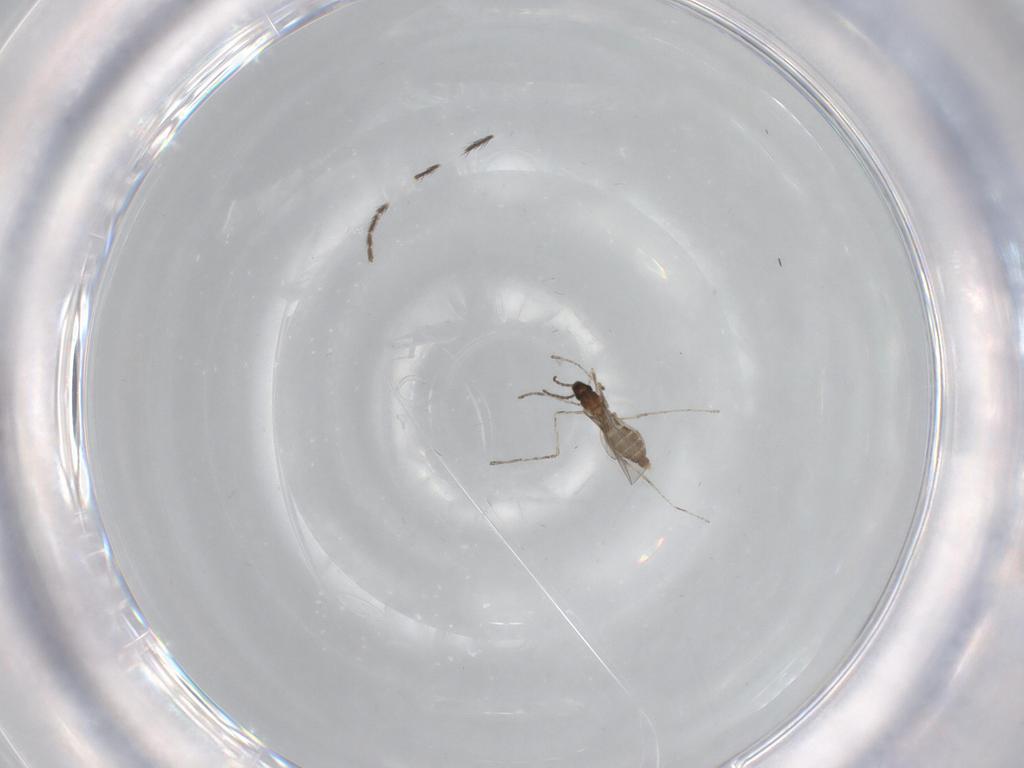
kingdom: Animalia
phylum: Arthropoda
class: Insecta
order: Diptera
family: Cecidomyiidae
